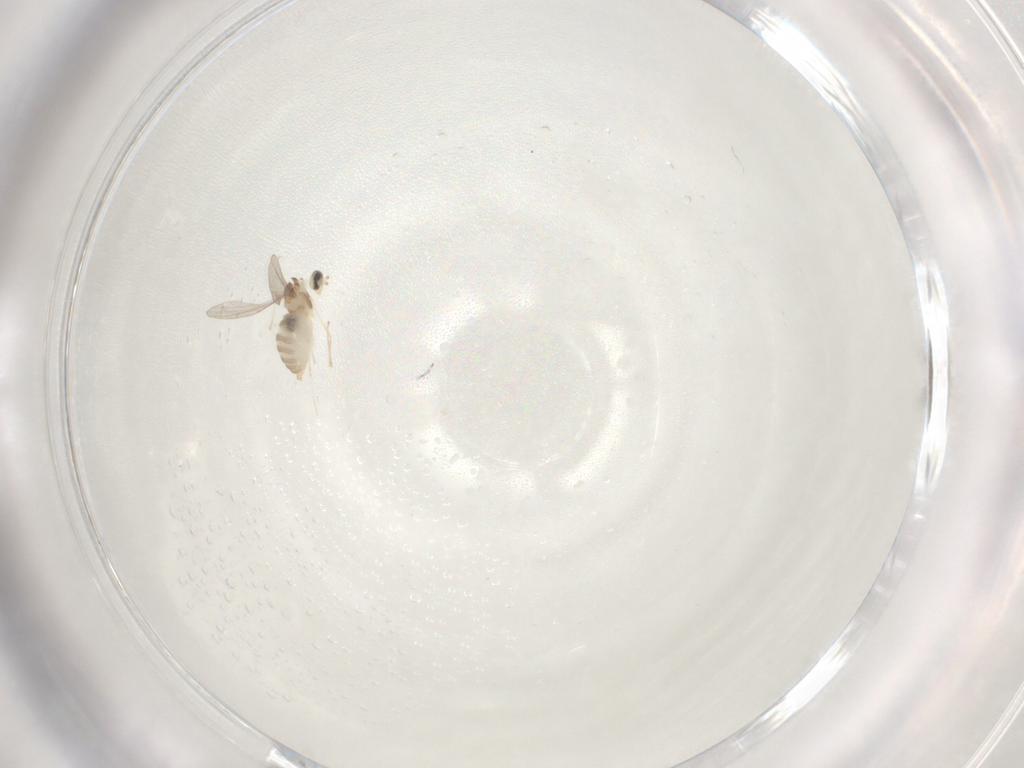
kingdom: Animalia
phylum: Arthropoda
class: Insecta
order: Diptera
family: Cecidomyiidae
